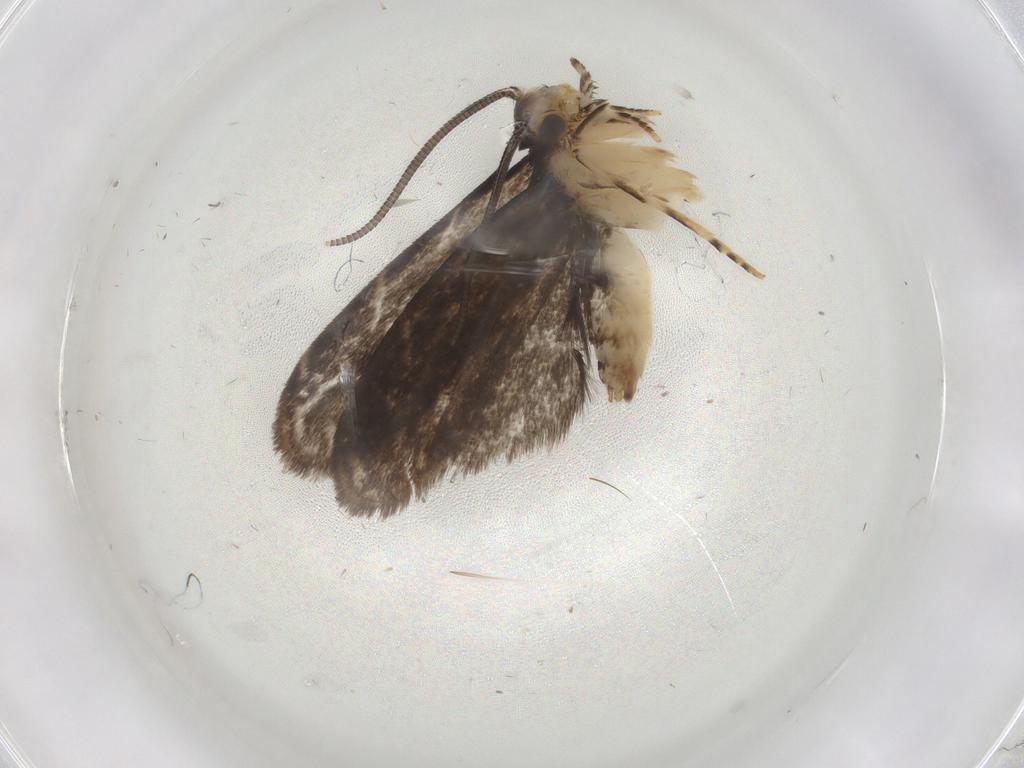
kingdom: Animalia
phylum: Arthropoda
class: Insecta
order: Lepidoptera
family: Dryadaulidae
